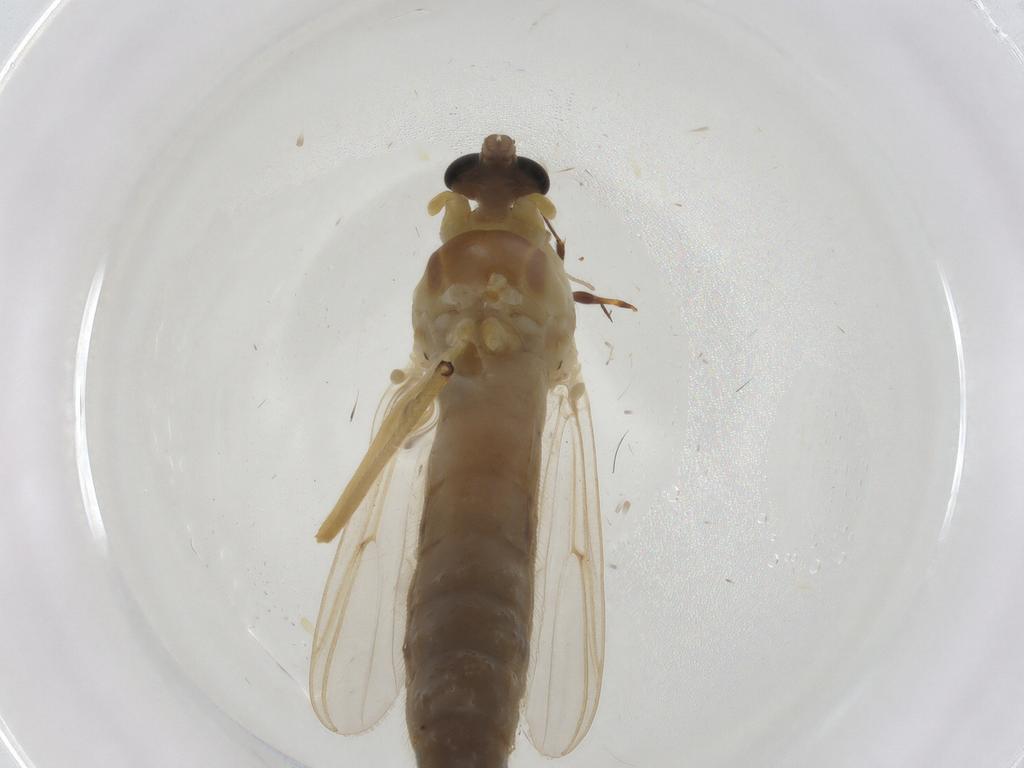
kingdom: Animalia
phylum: Arthropoda
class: Insecta
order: Diptera
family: Chironomidae
